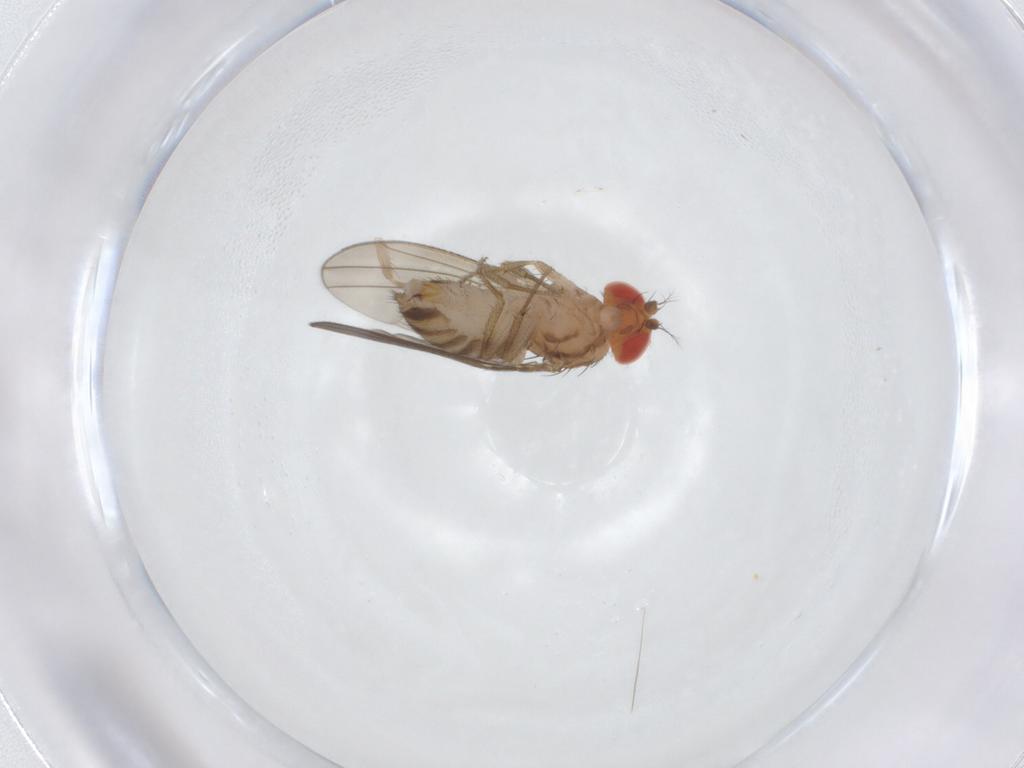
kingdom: Animalia
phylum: Arthropoda
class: Insecta
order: Diptera
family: Drosophilidae
